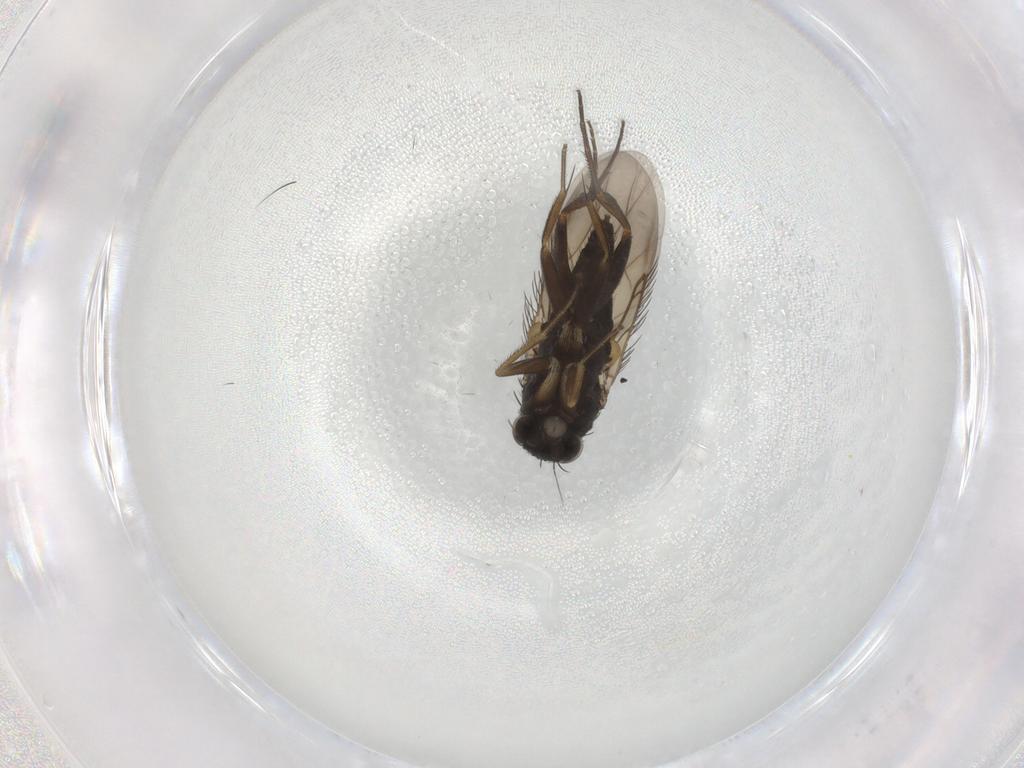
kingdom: Animalia
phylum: Arthropoda
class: Insecta
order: Diptera
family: Phoridae
